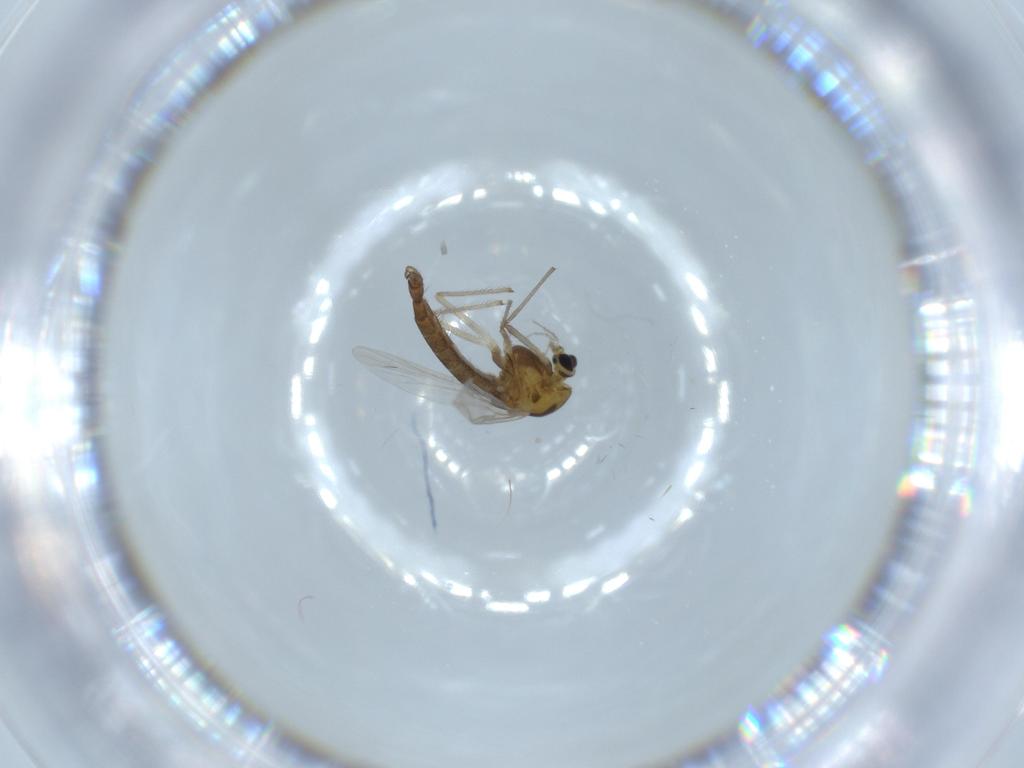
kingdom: Animalia
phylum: Arthropoda
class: Insecta
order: Diptera
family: Chironomidae
